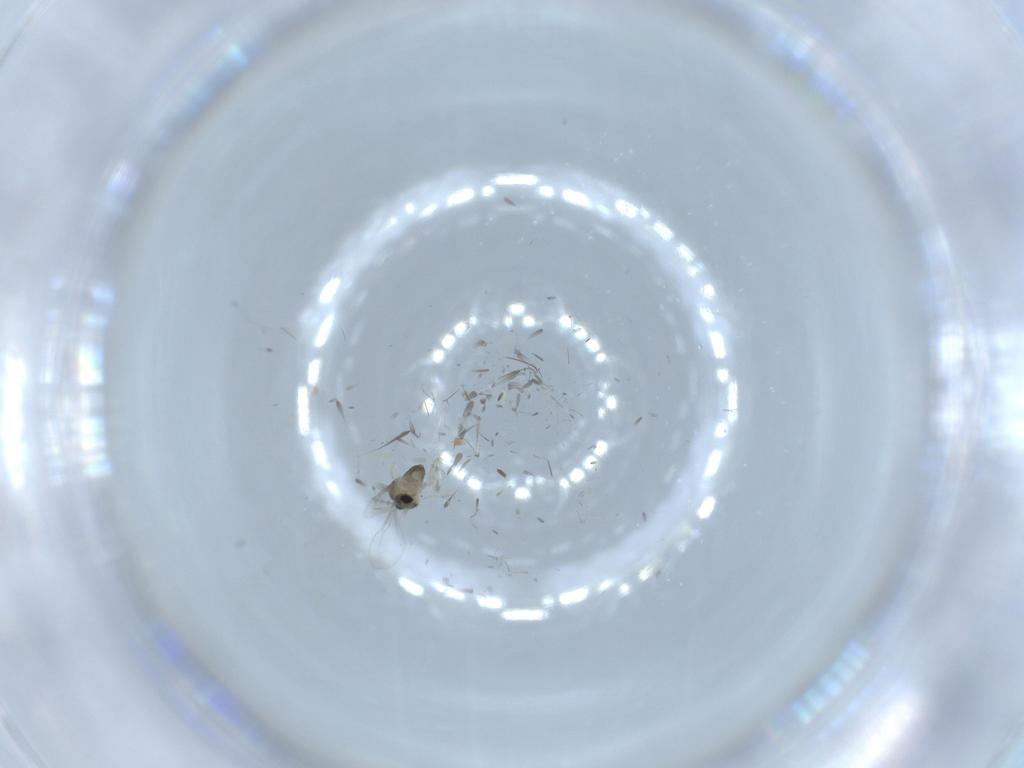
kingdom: Animalia
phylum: Arthropoda
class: Insecta
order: Diptera
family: Cecidomyiidae
